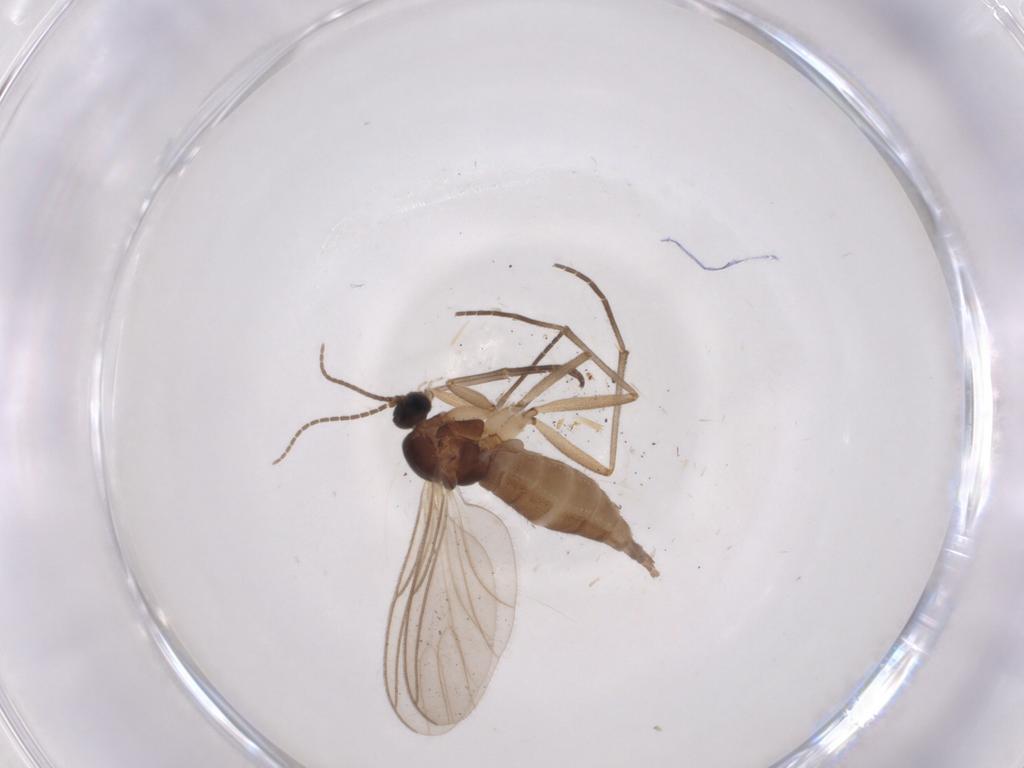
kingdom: Animalia
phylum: Arthropoda
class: Insecta
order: Diptera
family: Sciaridae
